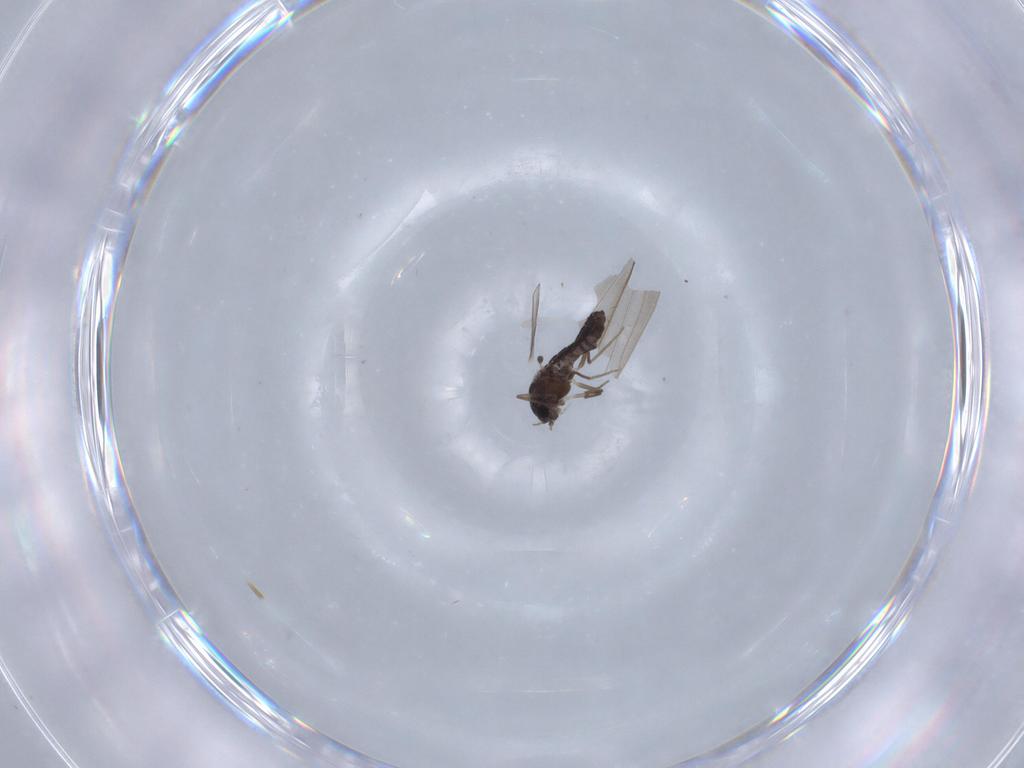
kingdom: Animalia
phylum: Arthropoda
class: Insecta
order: Diptera
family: Chironomidae
